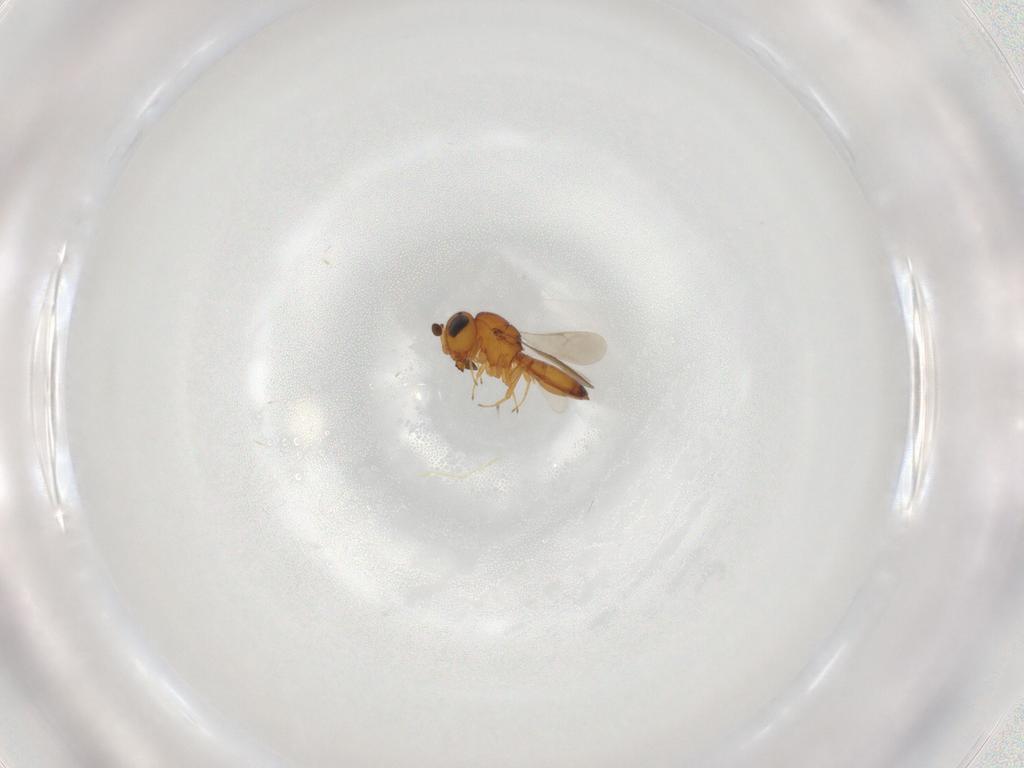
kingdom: Animalia
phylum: Arthropoda
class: Insecta
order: Hymenoptera
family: Scelionidae
